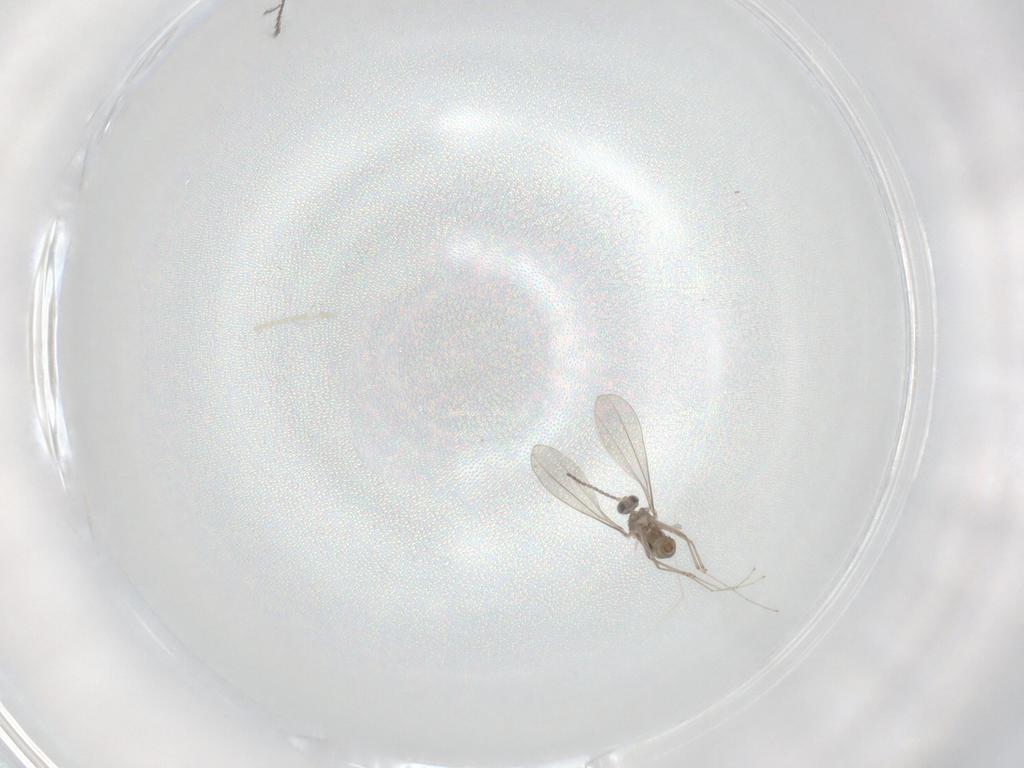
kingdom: Animalia
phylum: Arthropoda
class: Insecta
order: Diptera
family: Cecidomyiidae
